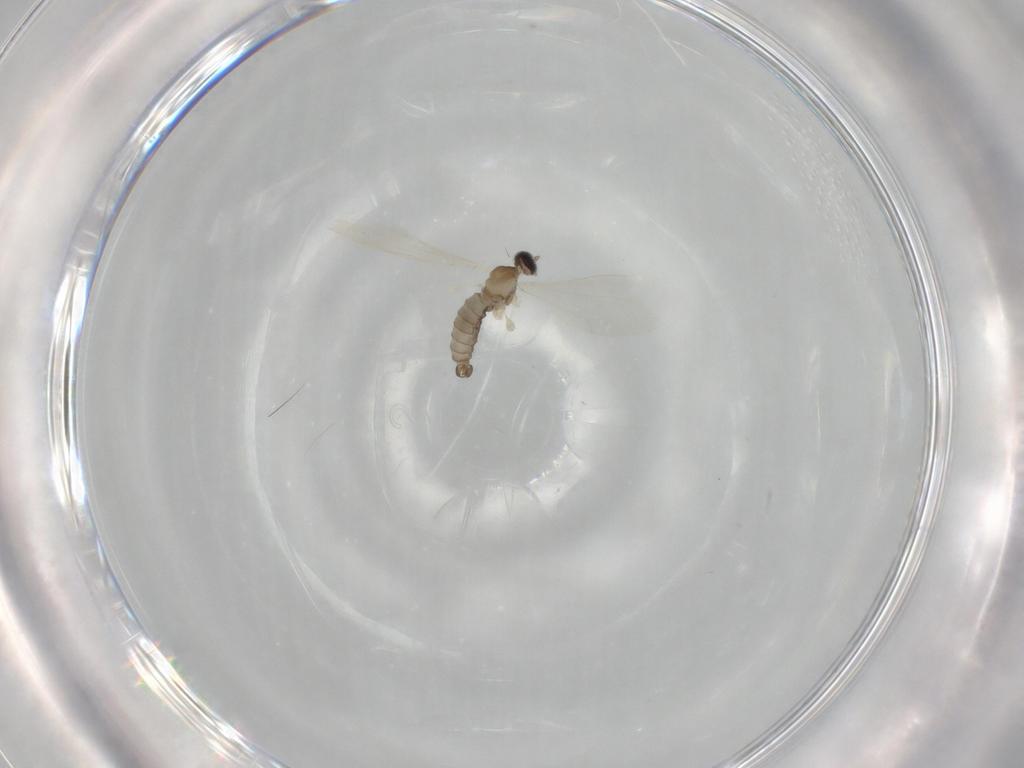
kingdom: Animalia
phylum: Arthropoda
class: Insecta
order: Diptera
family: Cecidomyiidae
